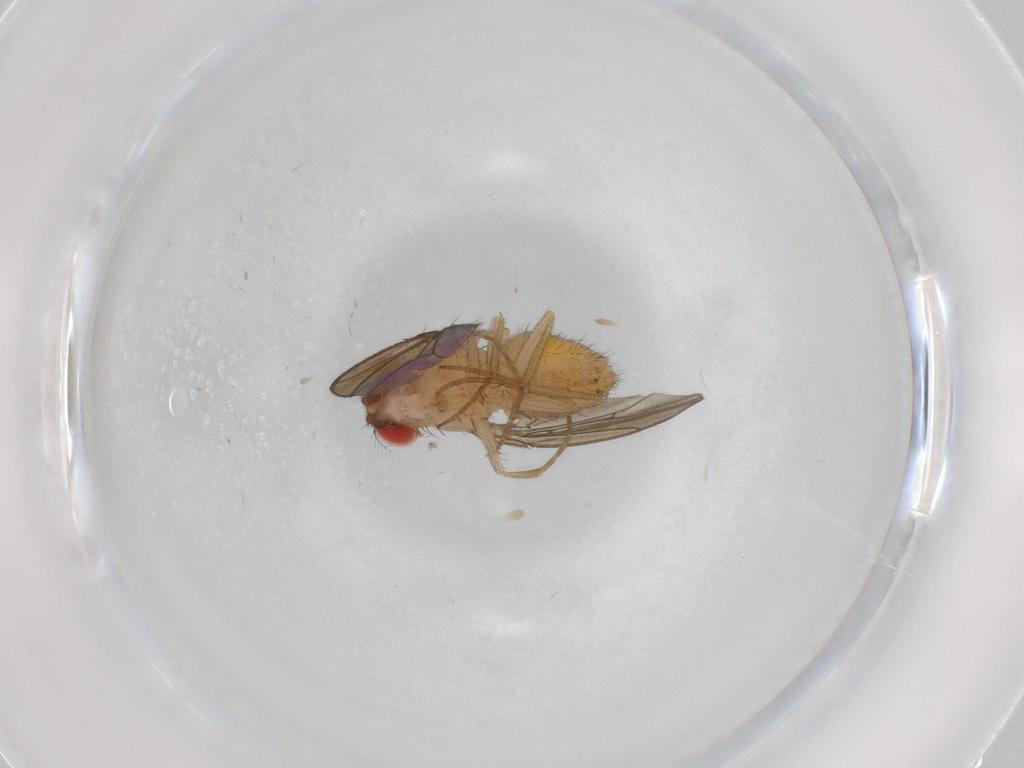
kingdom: Animalia
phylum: Arthropoda
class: Insecta
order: Diptera
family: Drosophilidae
